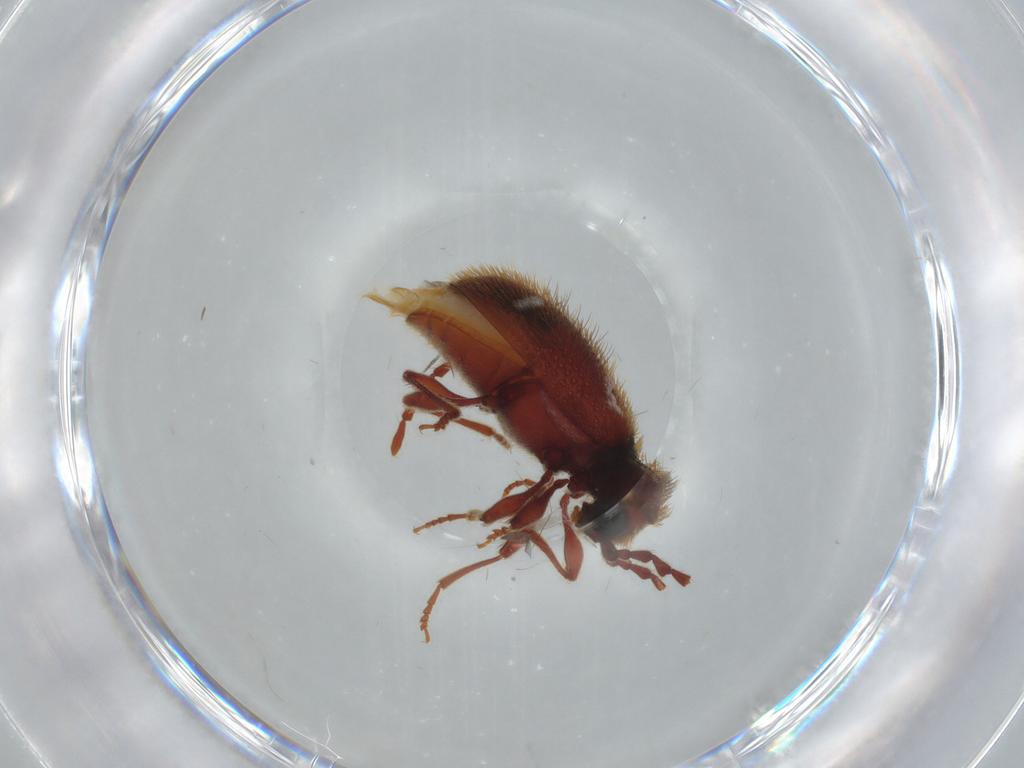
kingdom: Animalia
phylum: Arthropoda
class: Insecta
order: Coleoptera
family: Ptinidae
